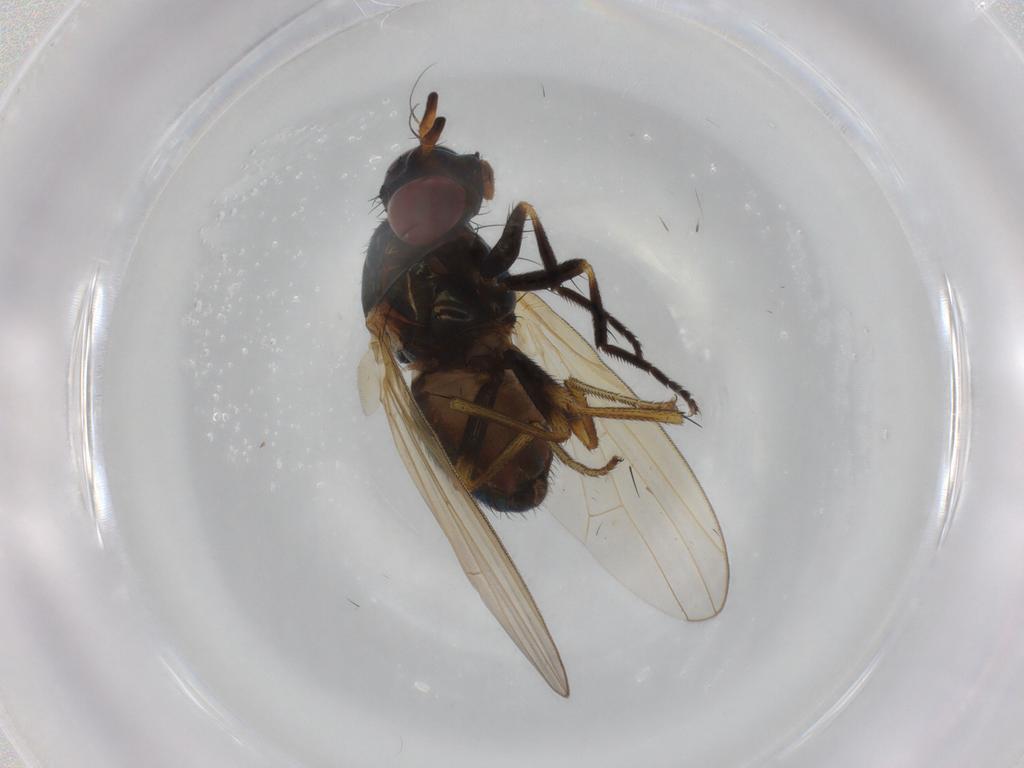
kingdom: Animalia
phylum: Arthropoda
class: Insecta
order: Diptera
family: Lauxaniidae
